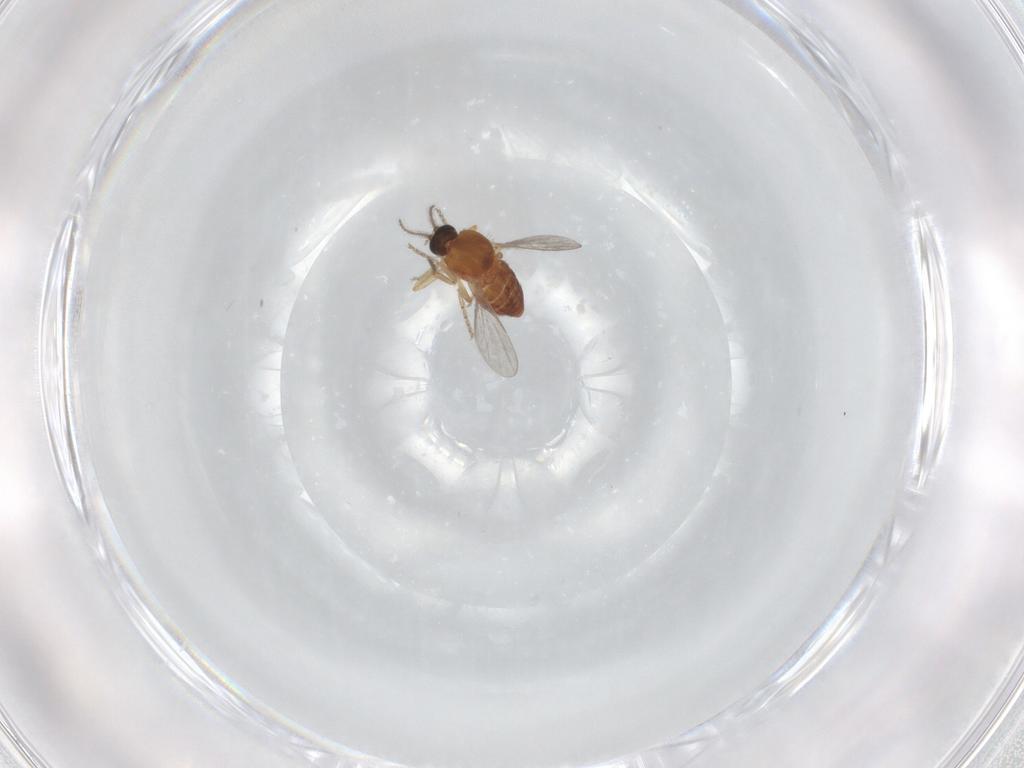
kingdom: Animalia
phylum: Arthropoda
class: Insecta
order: Diptera
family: Ceratopogonidae
